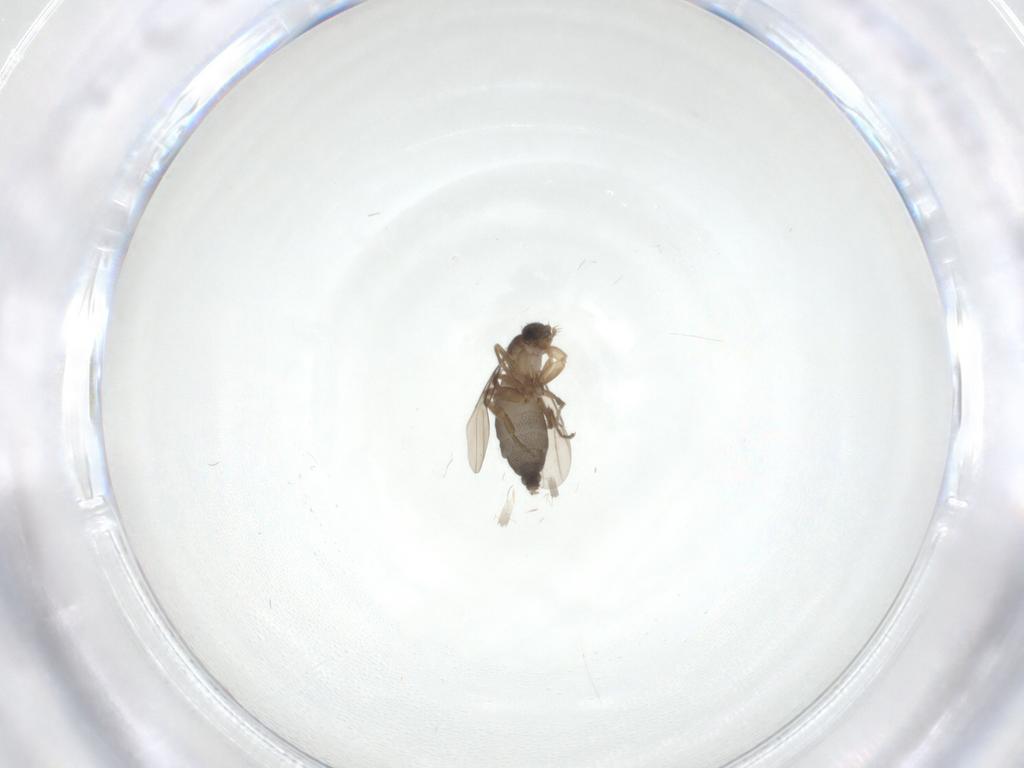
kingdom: Animalia
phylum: Arthropoda
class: Insecta
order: Diptera
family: Phoridae
